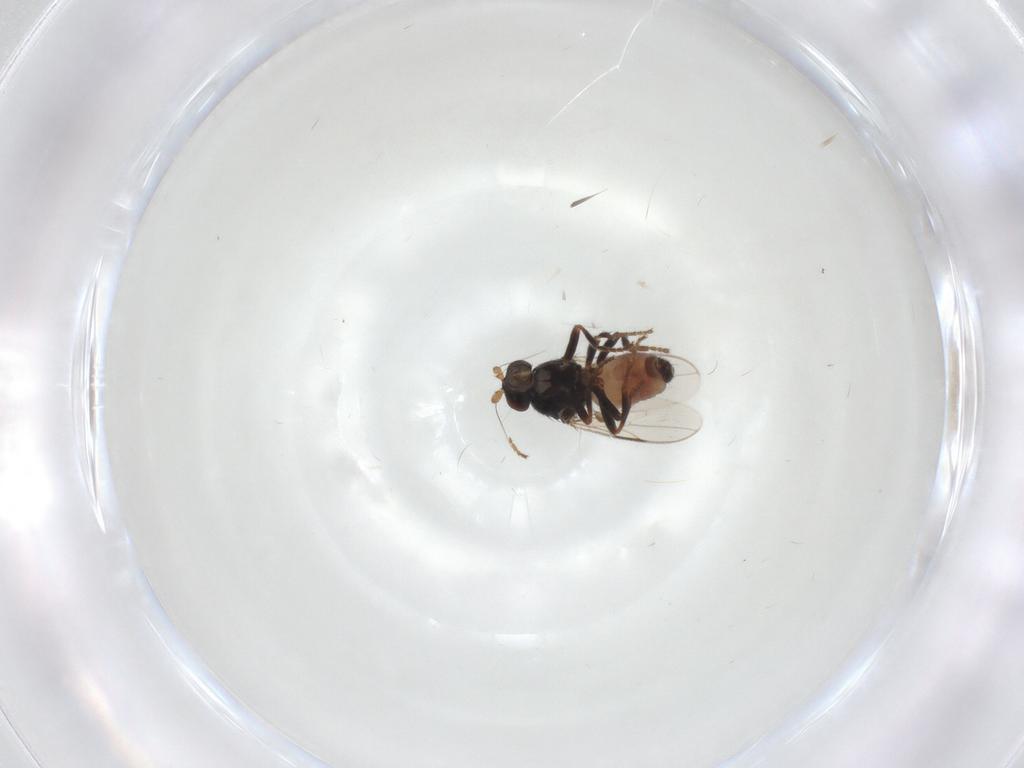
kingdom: Animalia
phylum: Arthropoda
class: Insecta
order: Diptera
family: Sphaeroceridae
